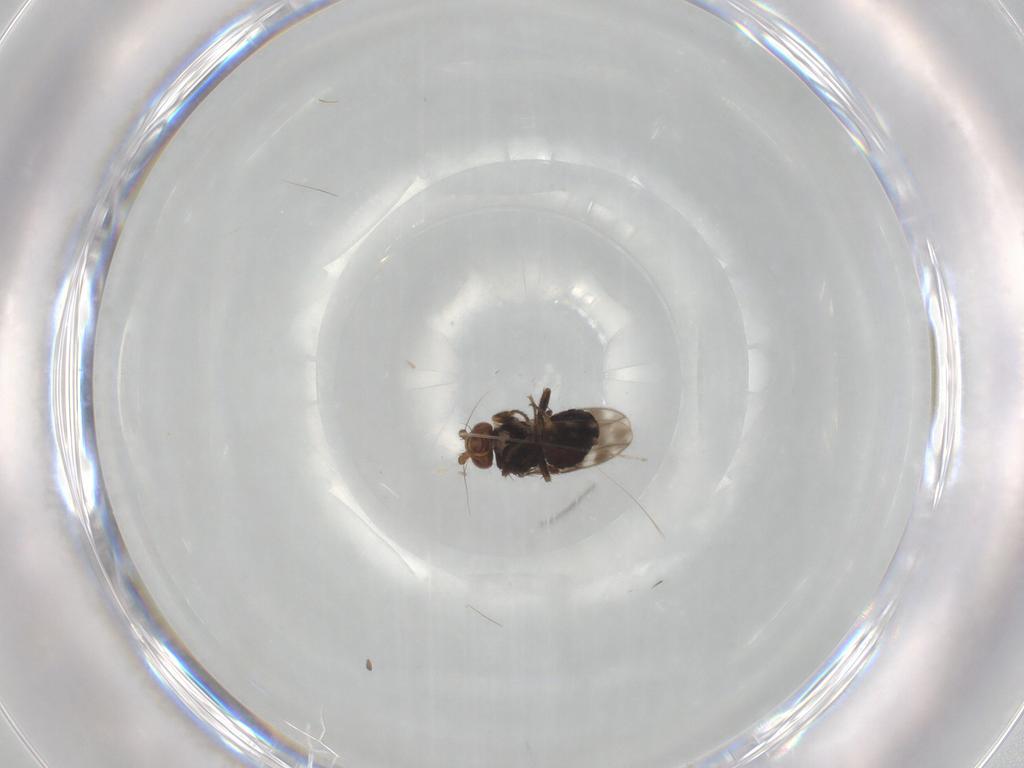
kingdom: Animalia
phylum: Arthropoda
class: Insecta
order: Diptera
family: Sphaeroceridae
